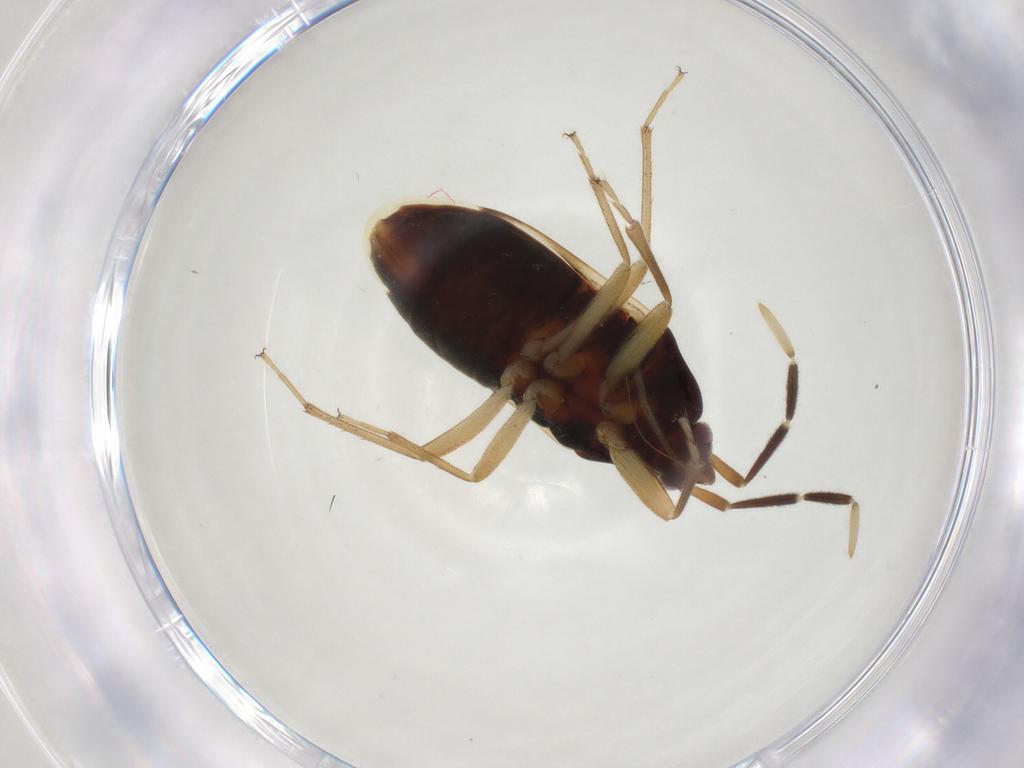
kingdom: Animalia
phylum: Arthropoda
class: Insecta
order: Hemiptera
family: Rhyparochromidae
